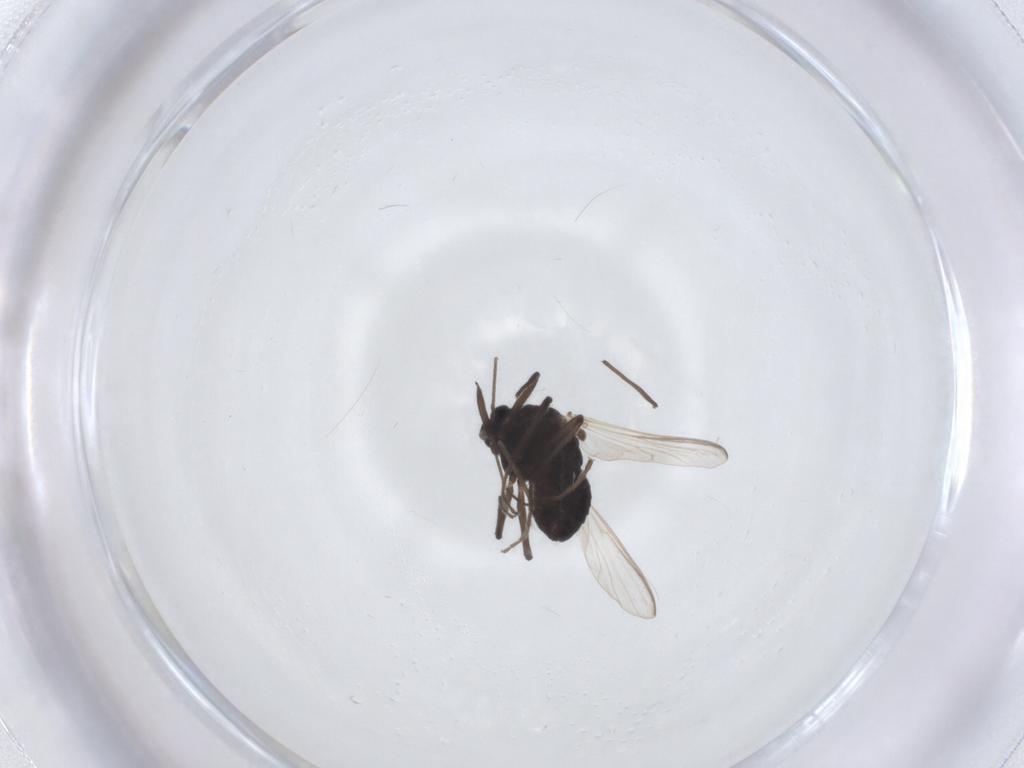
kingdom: Animalia
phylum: Arthropoda
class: Insecta
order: Diptera
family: Chironomidae
